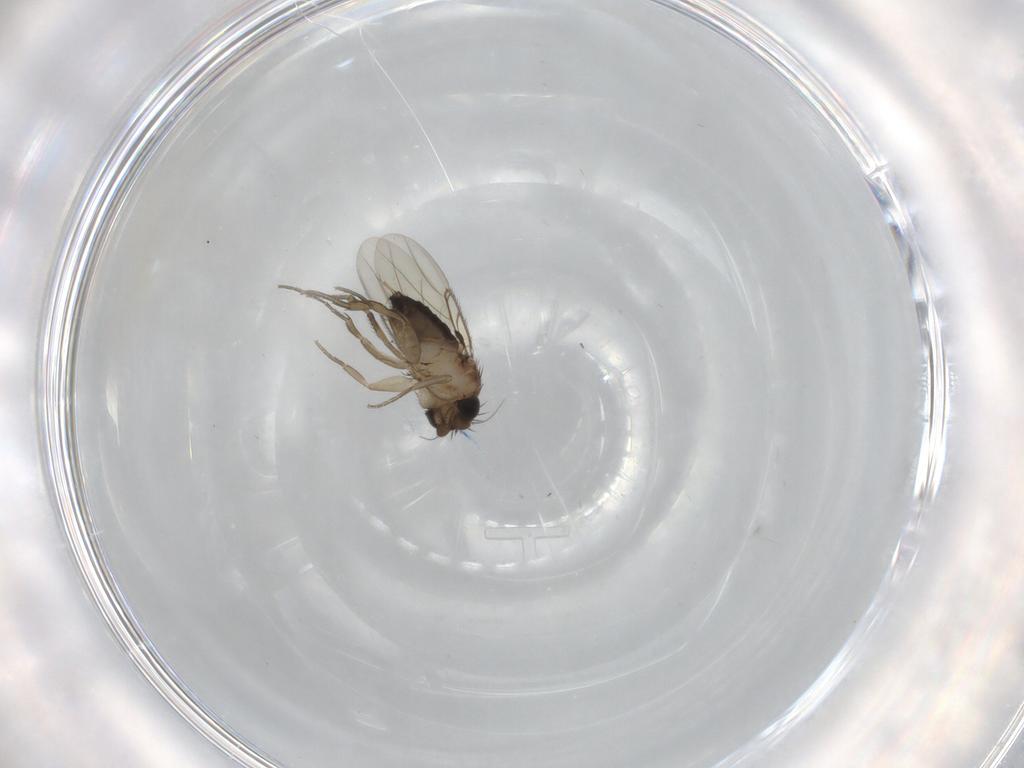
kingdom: Animalia
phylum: Arthropoda
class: Insecta
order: Diptera
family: Phoridae
